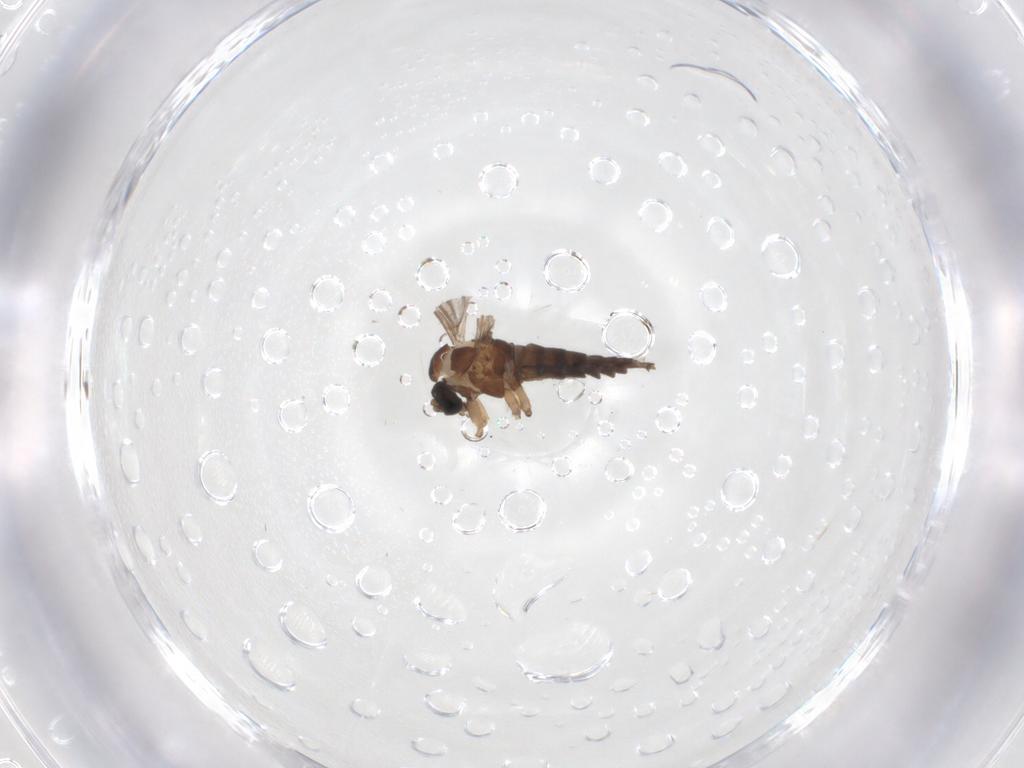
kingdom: Animalia
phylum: Arthropoda
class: Insecta
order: Diptera
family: Sciaridae
